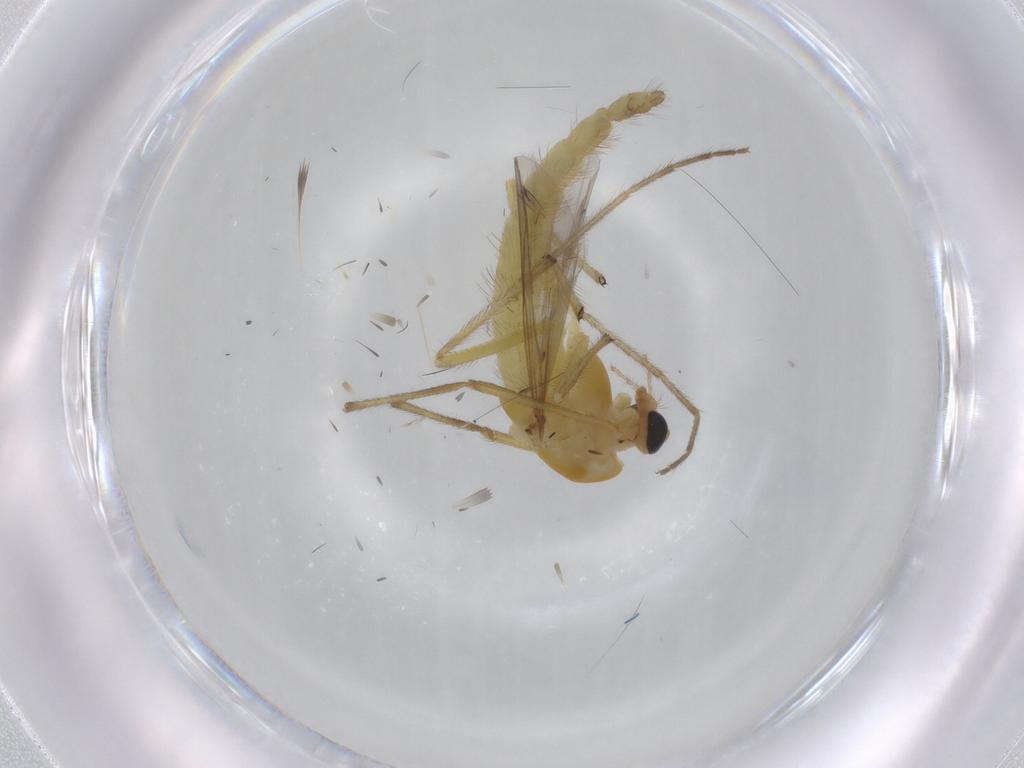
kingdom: Animalia
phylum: Arthropoda
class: Insecta
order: Diptera
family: Chironomidae
